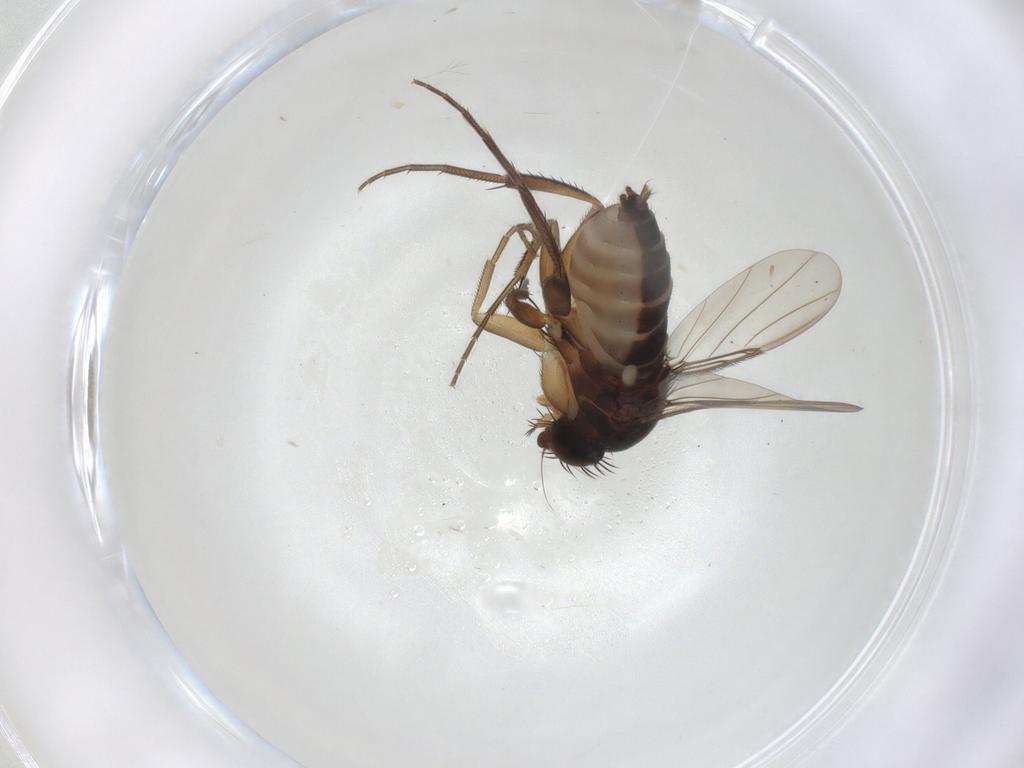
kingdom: Animalia
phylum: Arthropoda
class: Insecta
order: Diptera
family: Phoridae
